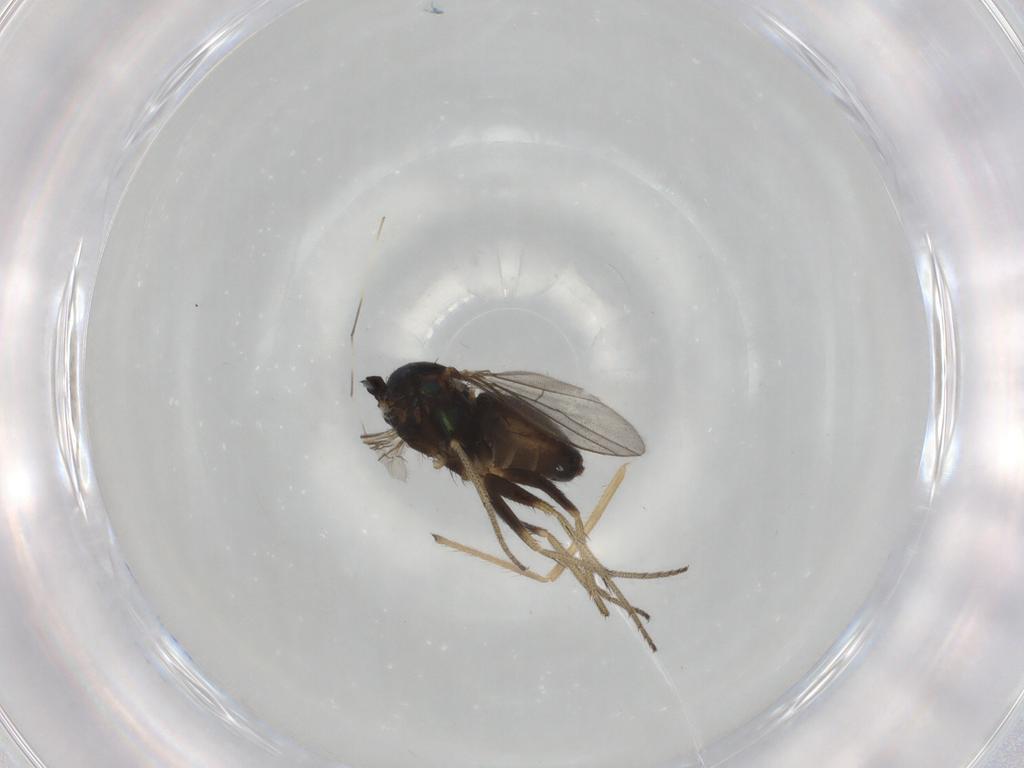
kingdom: Animalia
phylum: Arthropoda
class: Insecta
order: Diptera
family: Chironomidae
